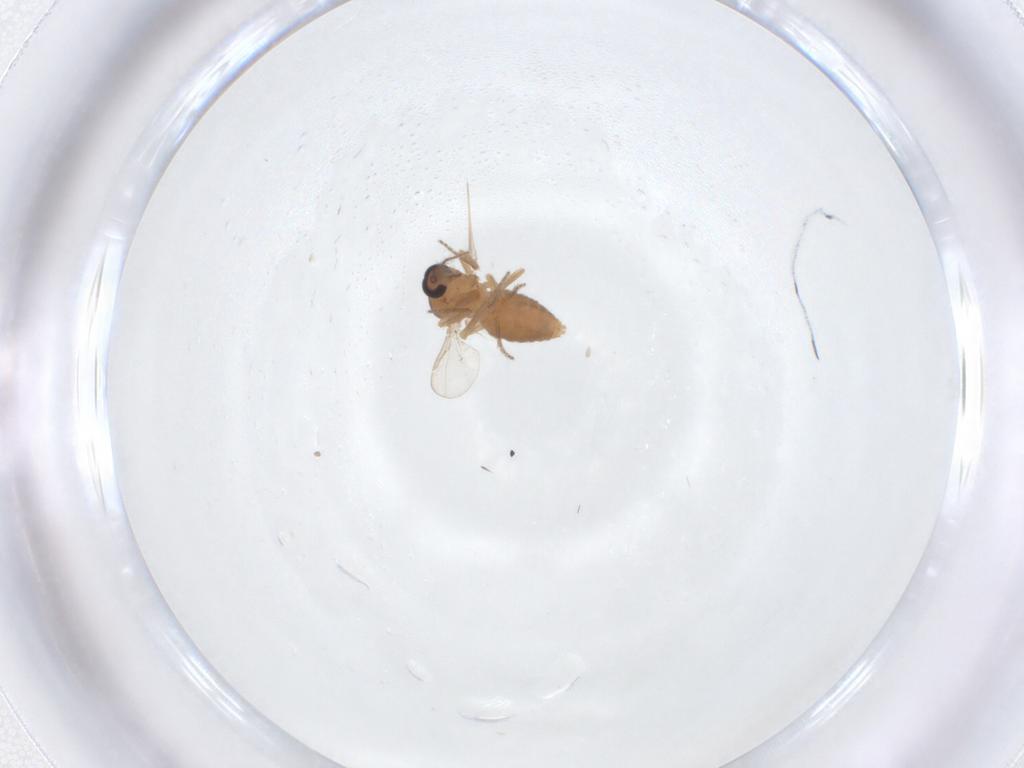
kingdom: Animalia
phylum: Arthropoda
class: Insecta
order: Diptera
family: Ceratopogonidae
